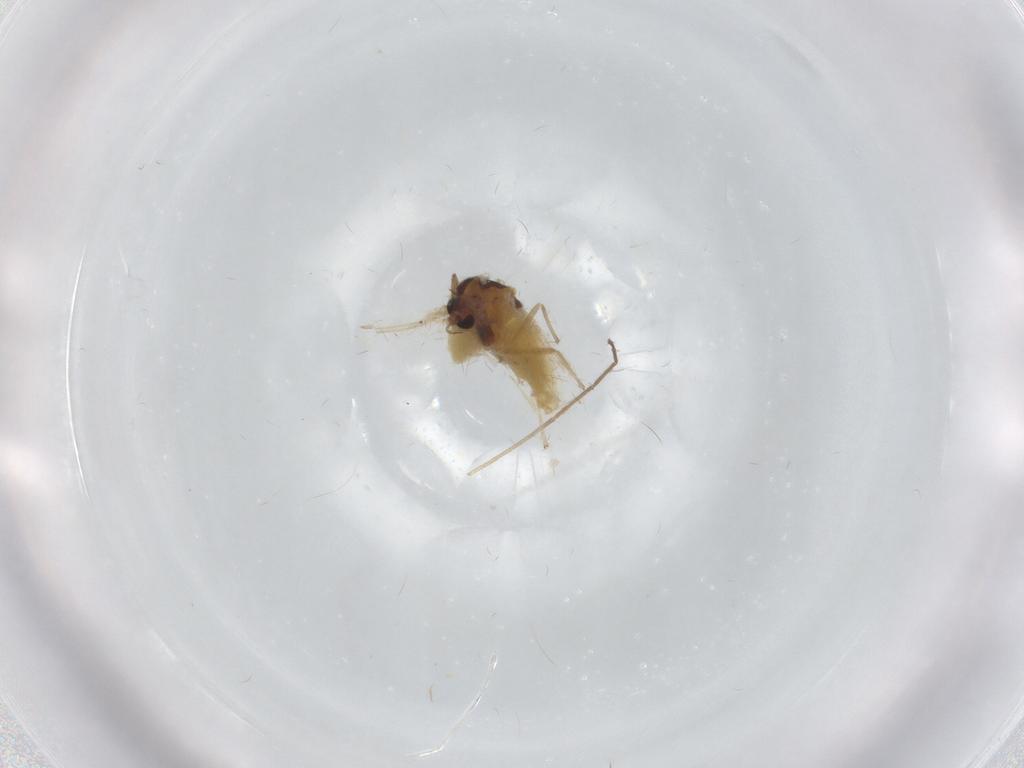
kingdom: Animalia
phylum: Arthropoda
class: Insecta
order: Diptera
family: Chironomidae
